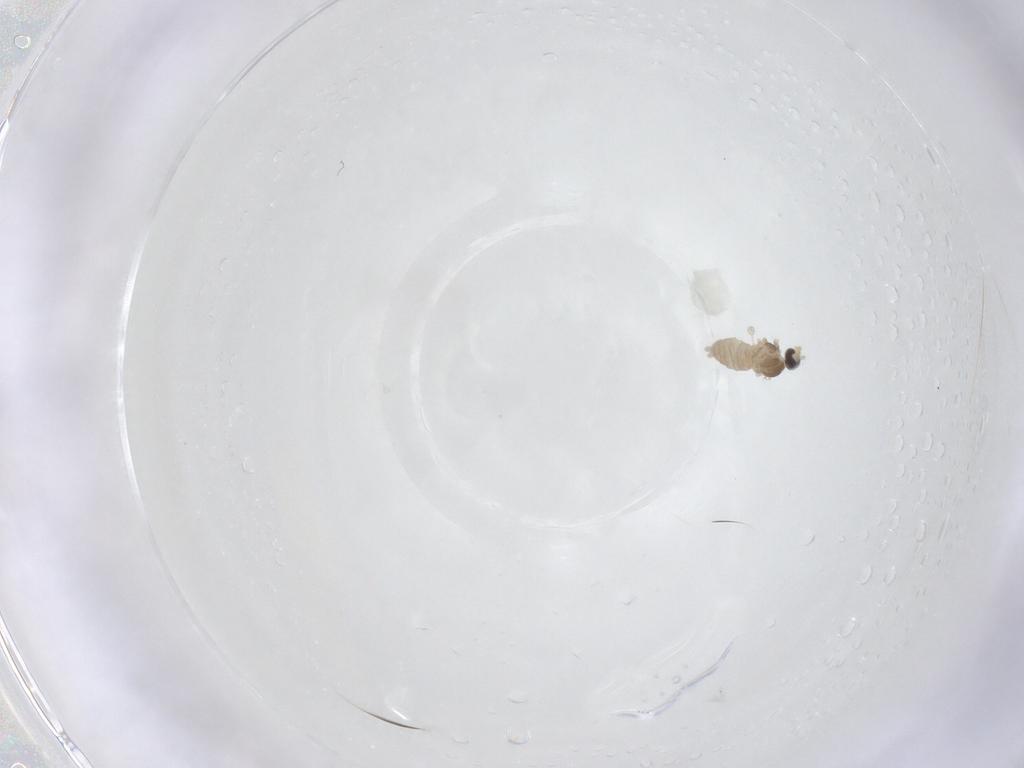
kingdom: Animalia
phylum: Arthropoda
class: Insecta
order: Diptera
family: Cecidomyiidae
